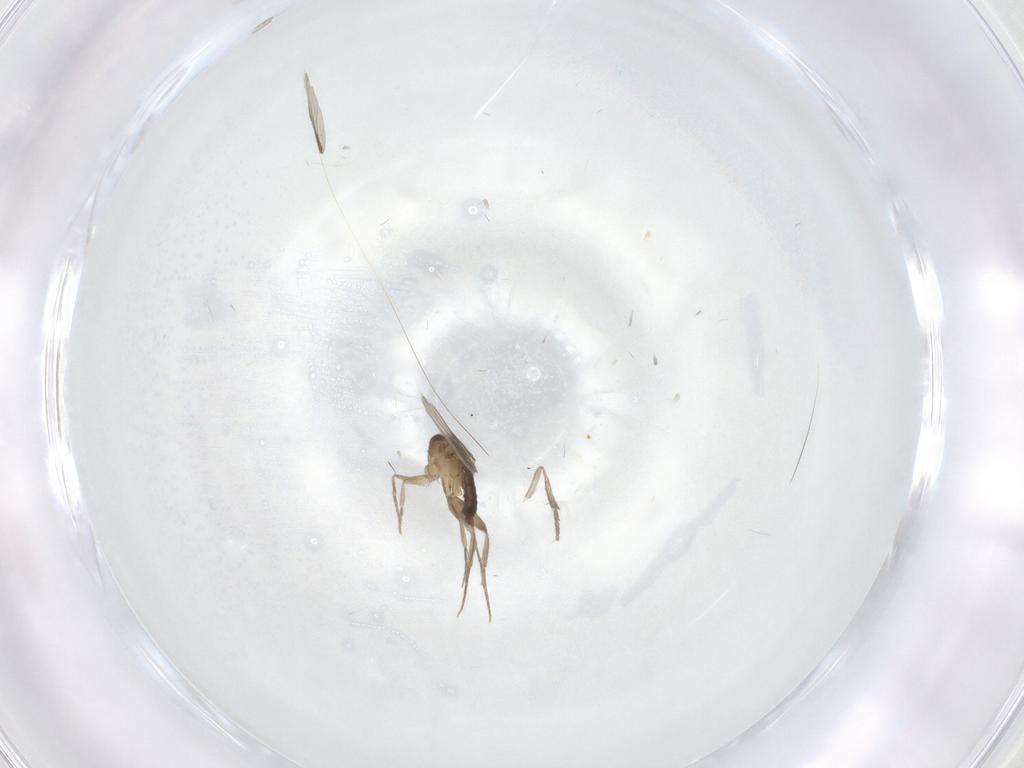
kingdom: Animalia
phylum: Arthropoda
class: Insecta
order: Diptera
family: Phoridae
